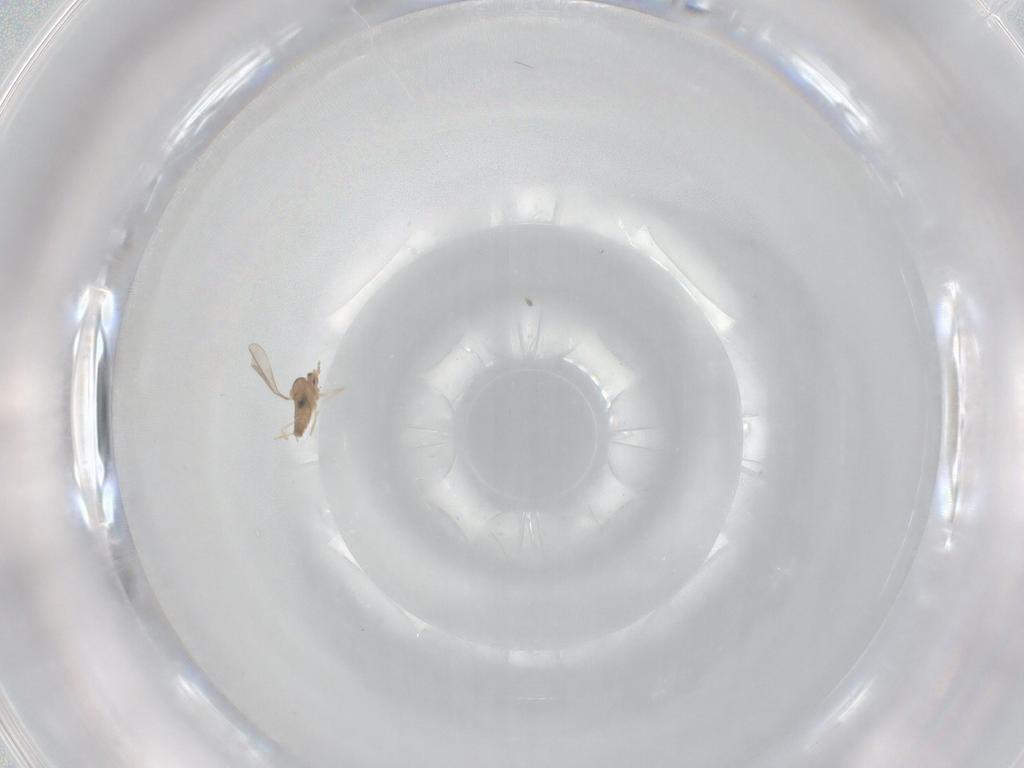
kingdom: Animalia
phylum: Arthropoda
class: Insecta
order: Diptera
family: Cecidomyiidae
